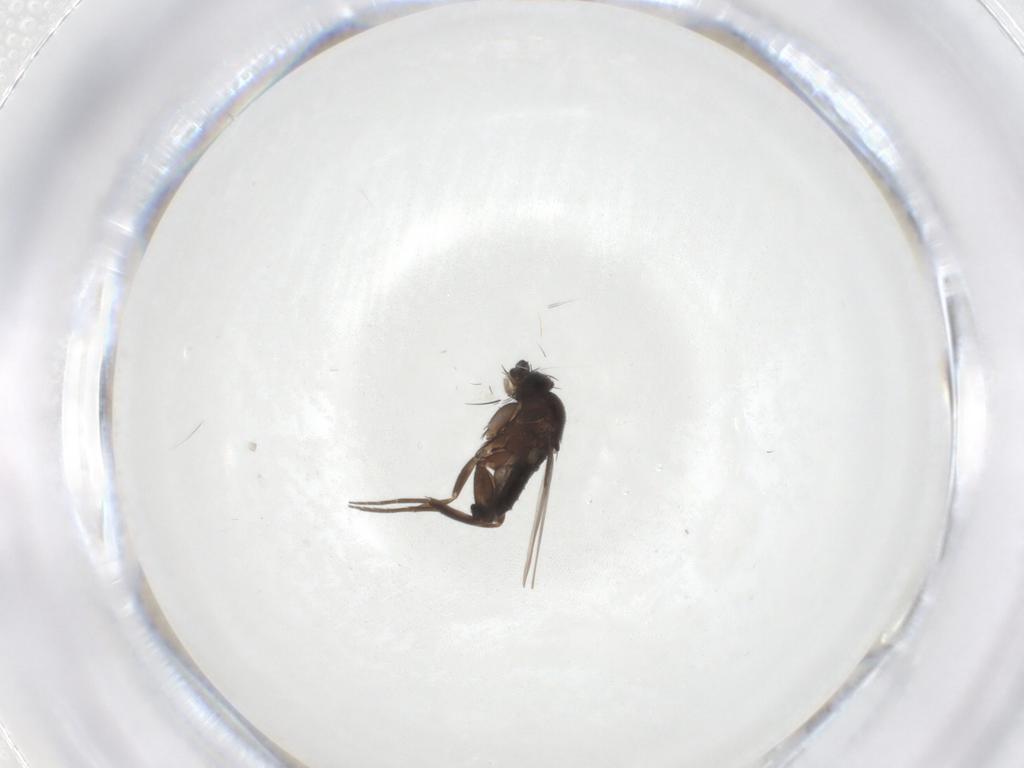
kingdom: Animalia
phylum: Arthropoda
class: Insecta
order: Diptera
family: Phoridae
